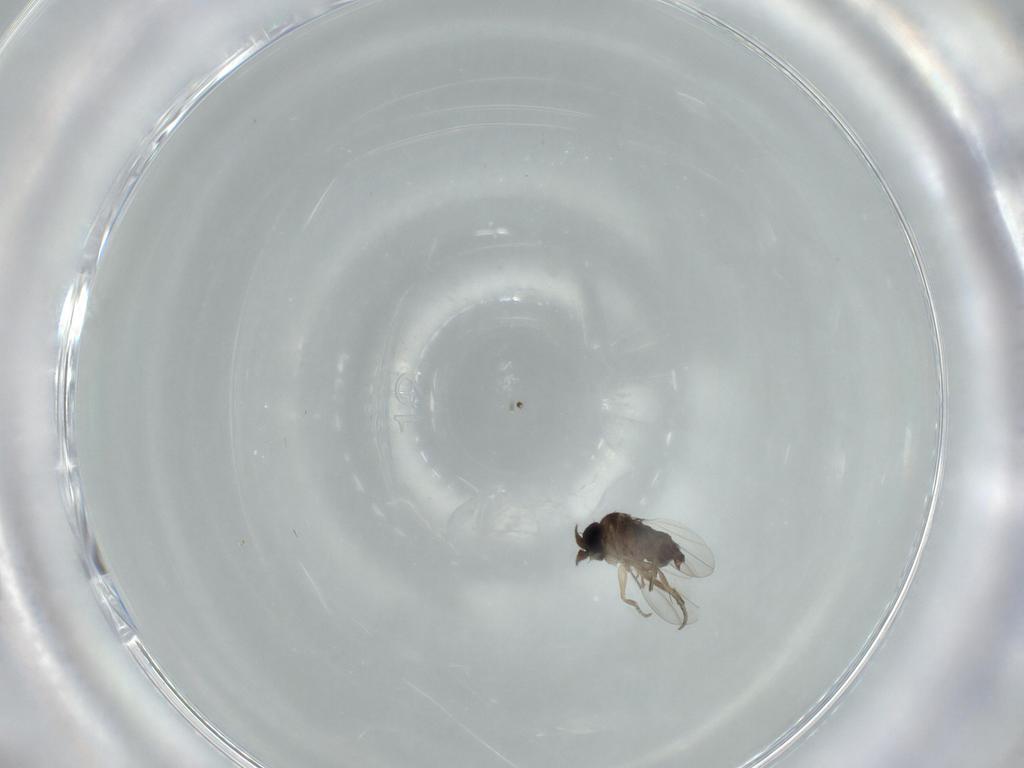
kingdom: Animalia
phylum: Arthropoda
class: Insecta
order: Diptera
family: Phoridae
